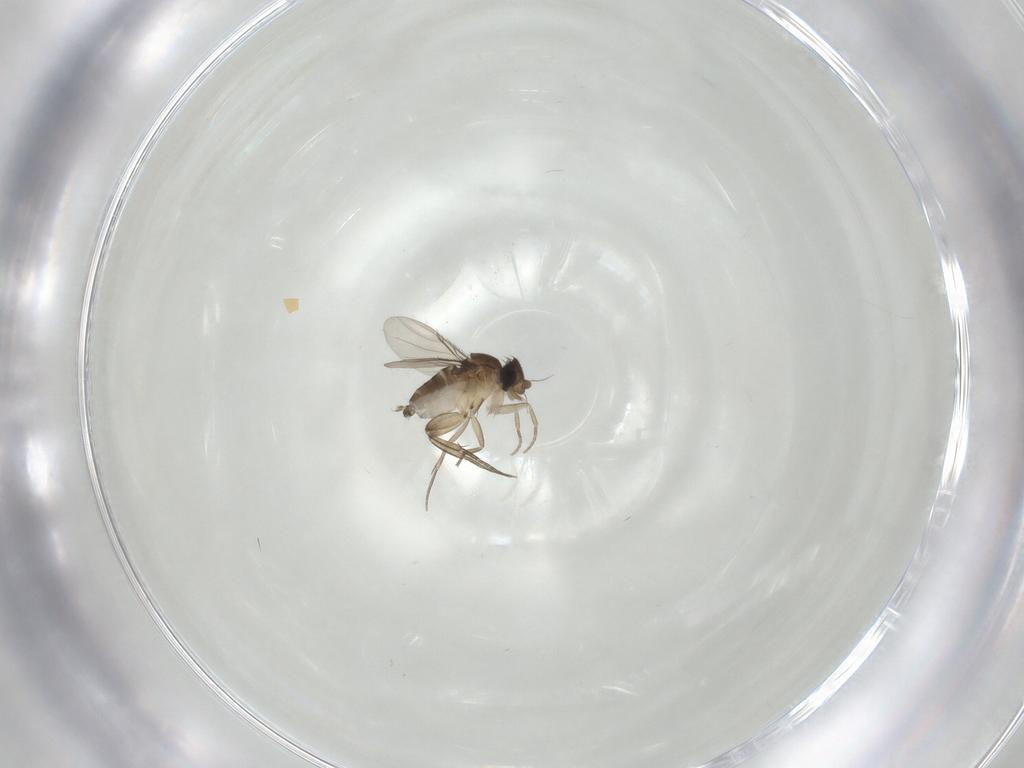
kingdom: Animalia
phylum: Arthropoda
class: Insecta
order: Diptera
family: Phoridae
